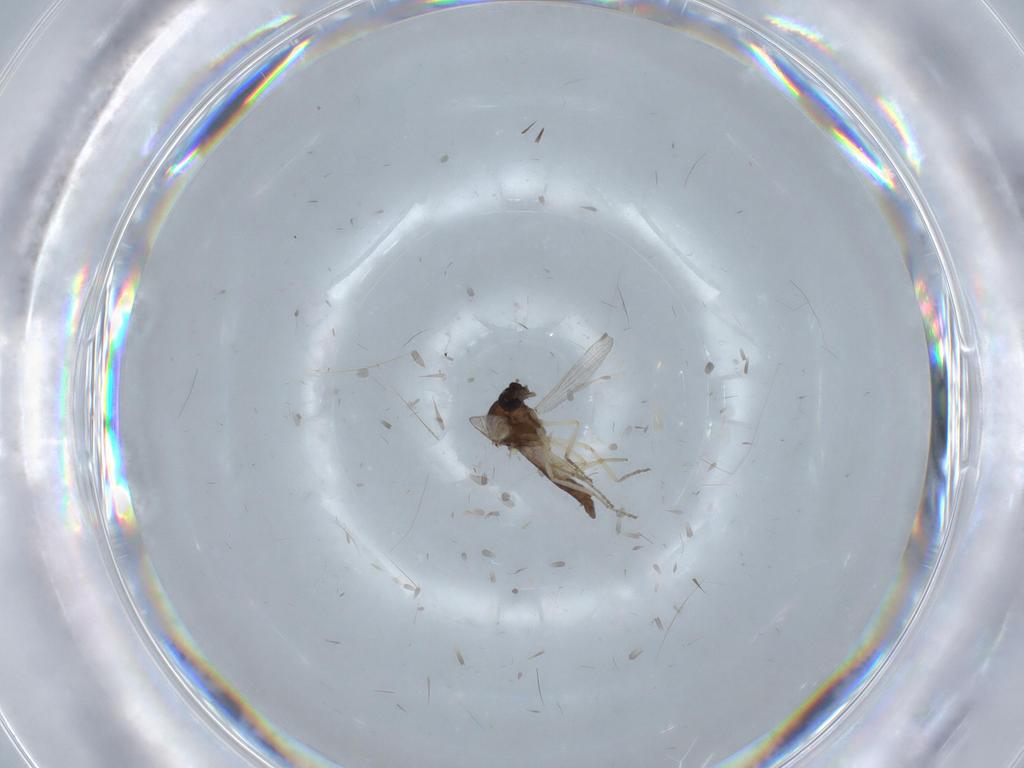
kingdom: Animalia
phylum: Arthropoda
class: Insecta
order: Diptera
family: Ceratopogonidae
